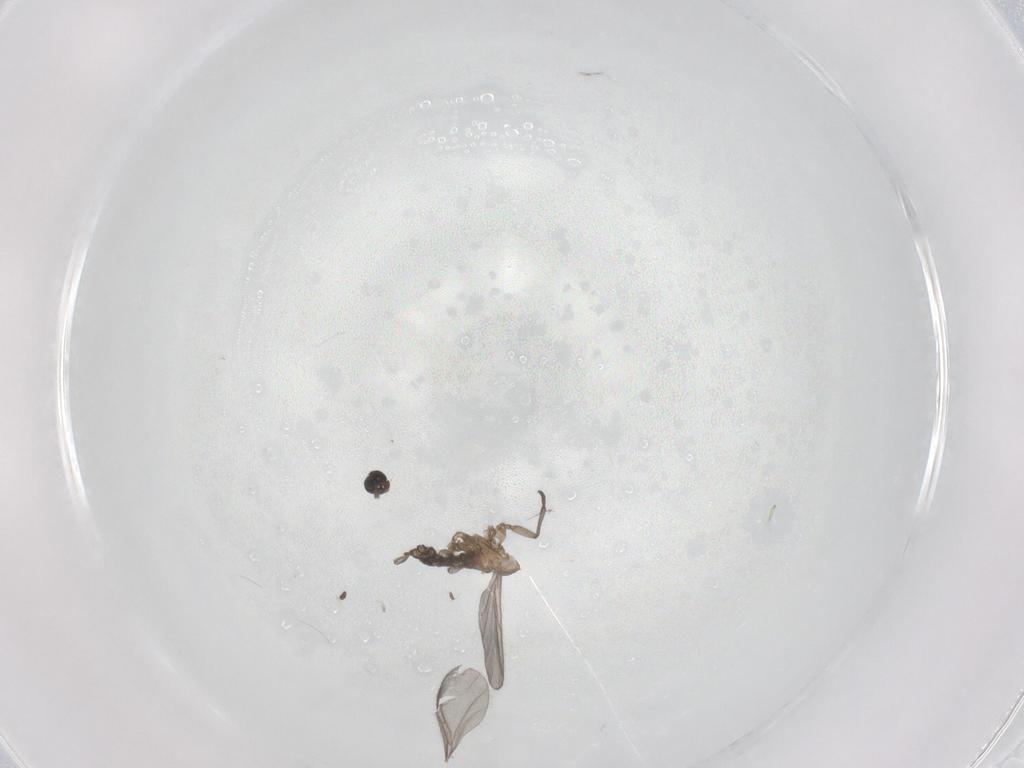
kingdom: Animalia
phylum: Arthropoda
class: Insecta
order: Diptera
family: Sciaridae
